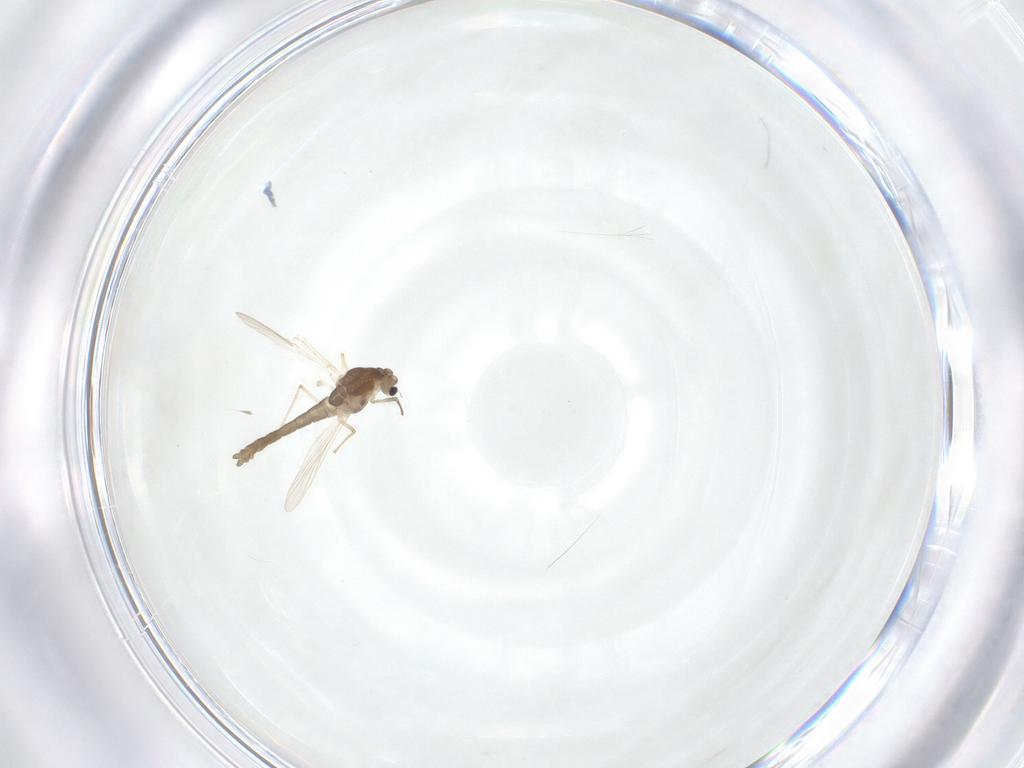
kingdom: Animalia
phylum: Arthropoda
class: Insecta
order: Diptera
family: Chironomidae
